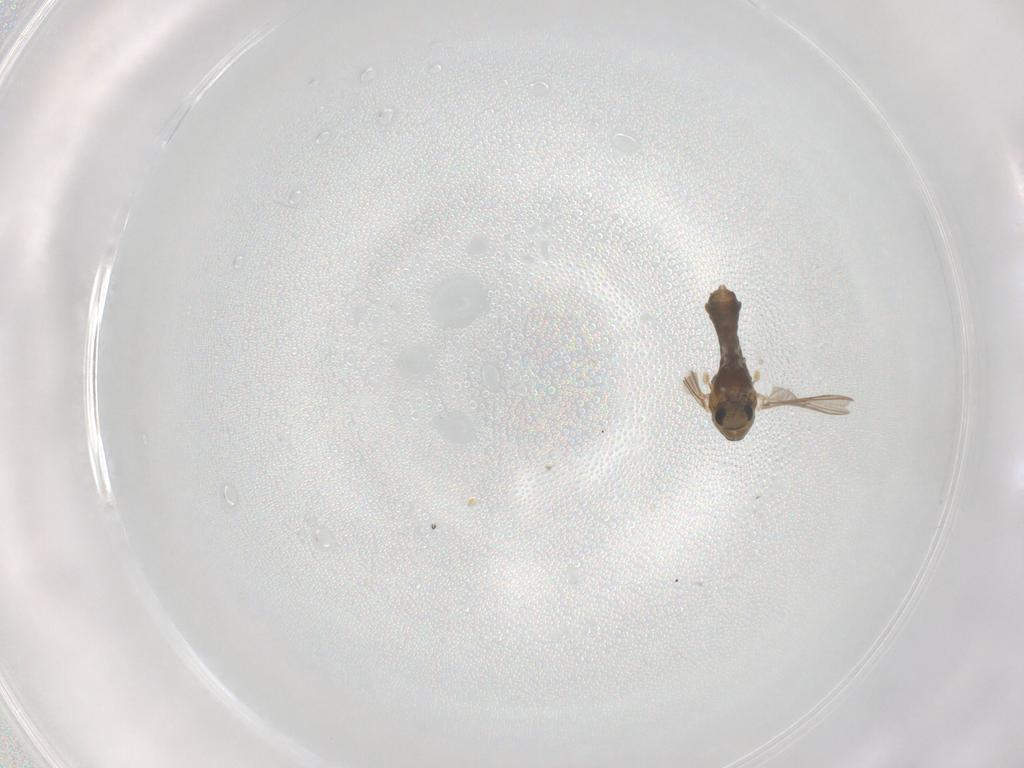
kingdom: Animalia
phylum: Arthropoda
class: Insecta
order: Diptera
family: Chironomidae
